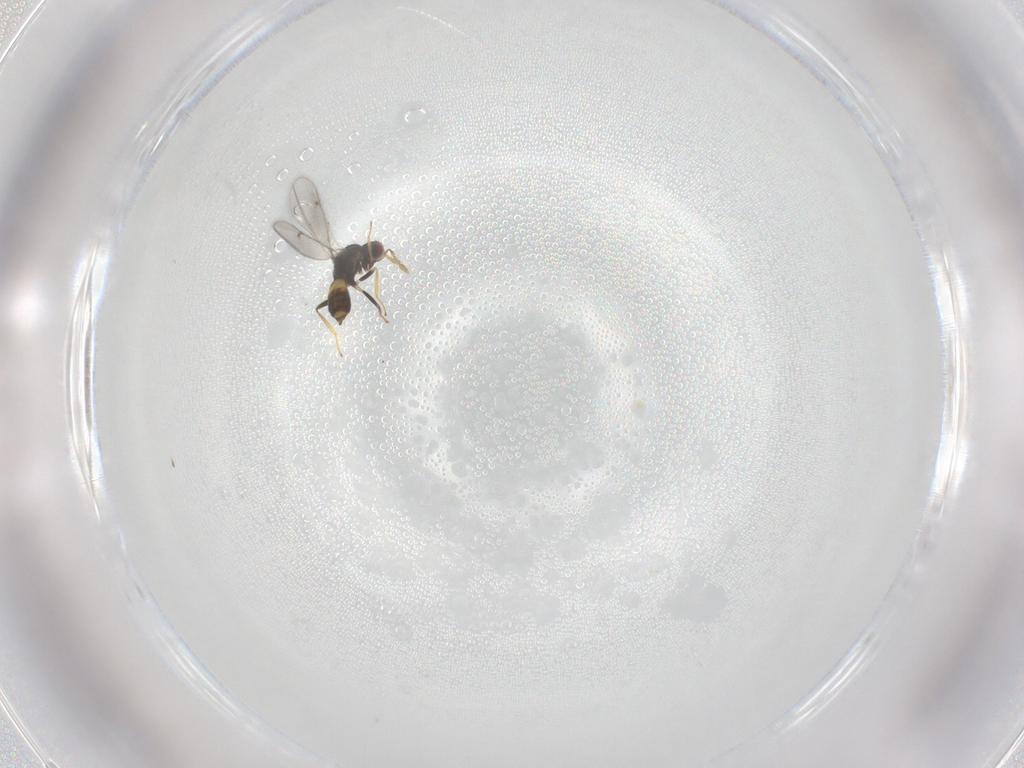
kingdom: Animalia
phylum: Arthropoda
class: Insecta
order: Hymenoptera
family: Eulophidae
